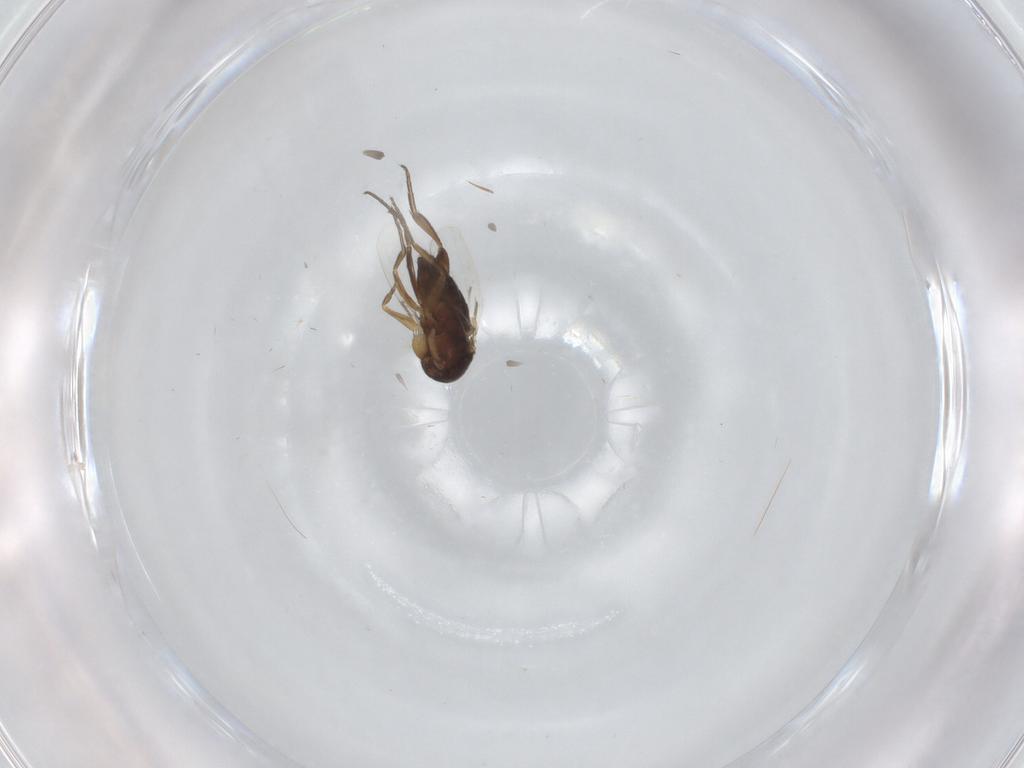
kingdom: Animalia
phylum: Arthropoda
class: Insecta
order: Diptera
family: Phoridae
